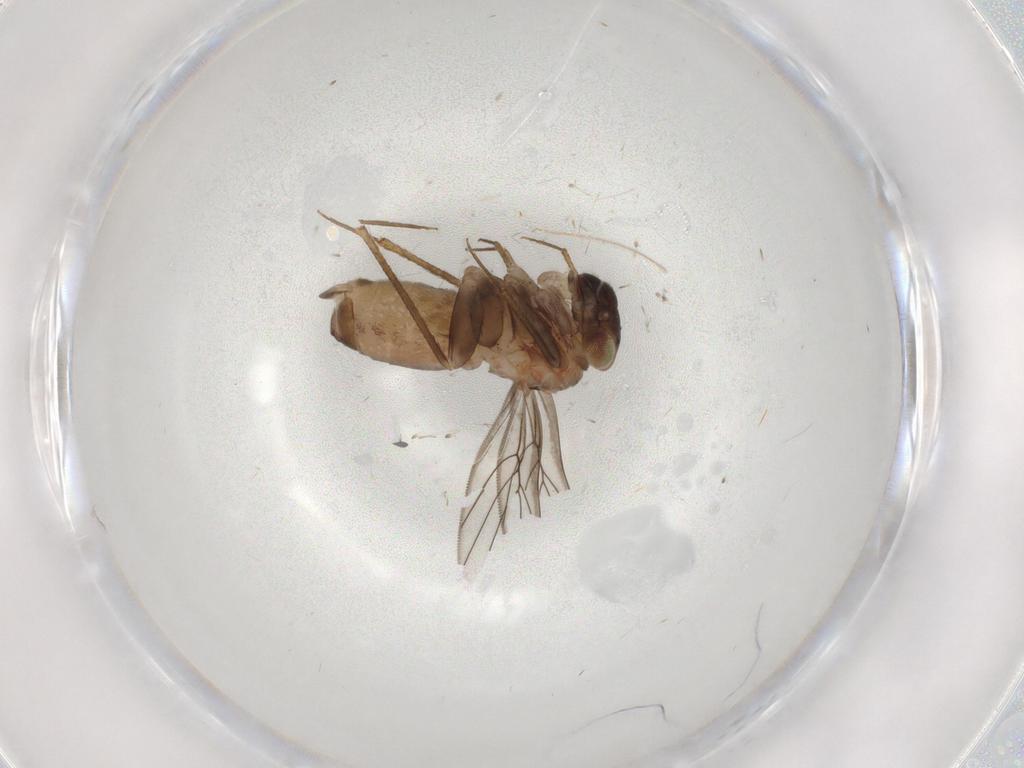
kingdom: Animalia
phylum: Arthropoda
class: Insecta
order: Psocodea
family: Lepidopsocidae
